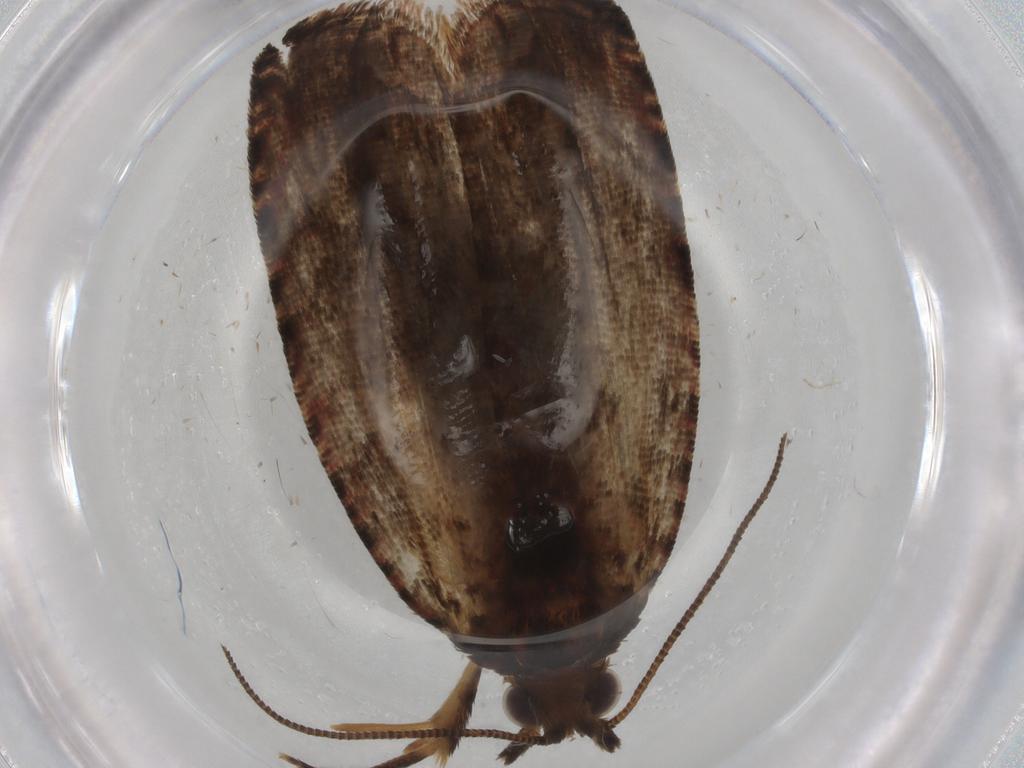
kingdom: Animalia
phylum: Arthropoda
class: Insecta
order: Lepidoptera
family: Tortricidae
